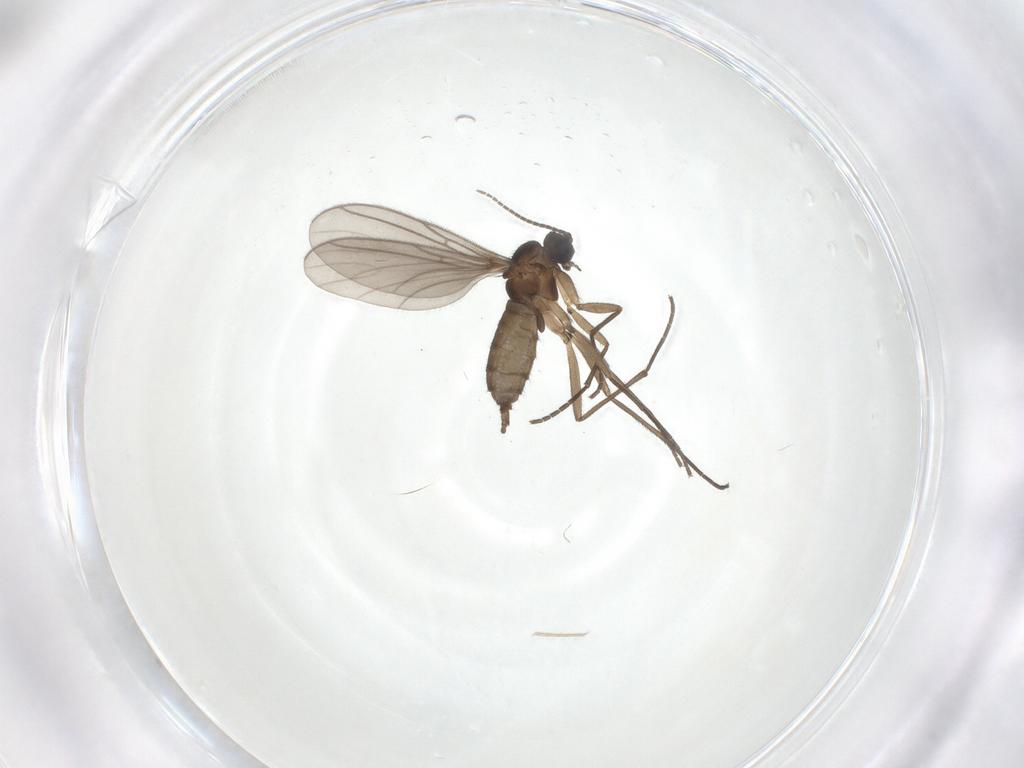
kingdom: Animalia
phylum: Arthropoda
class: Insecta
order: Diptera
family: Sciaridae
